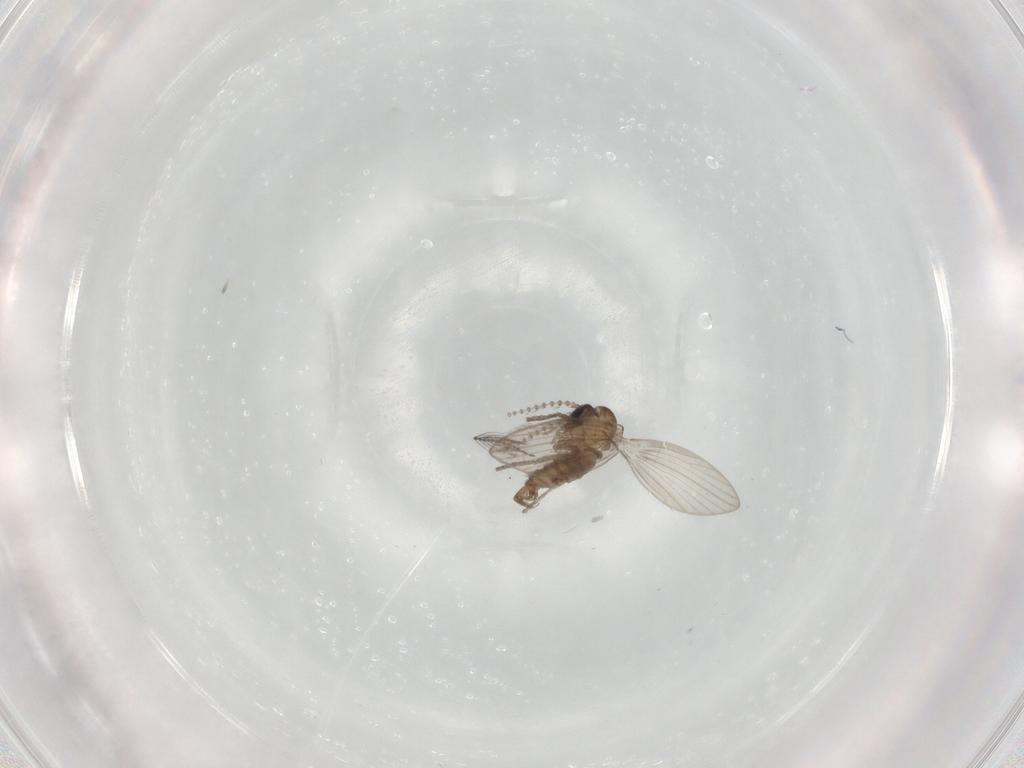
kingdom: Animalia
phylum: Arthropoda
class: Insecta
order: Diptera
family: Psychodidae
